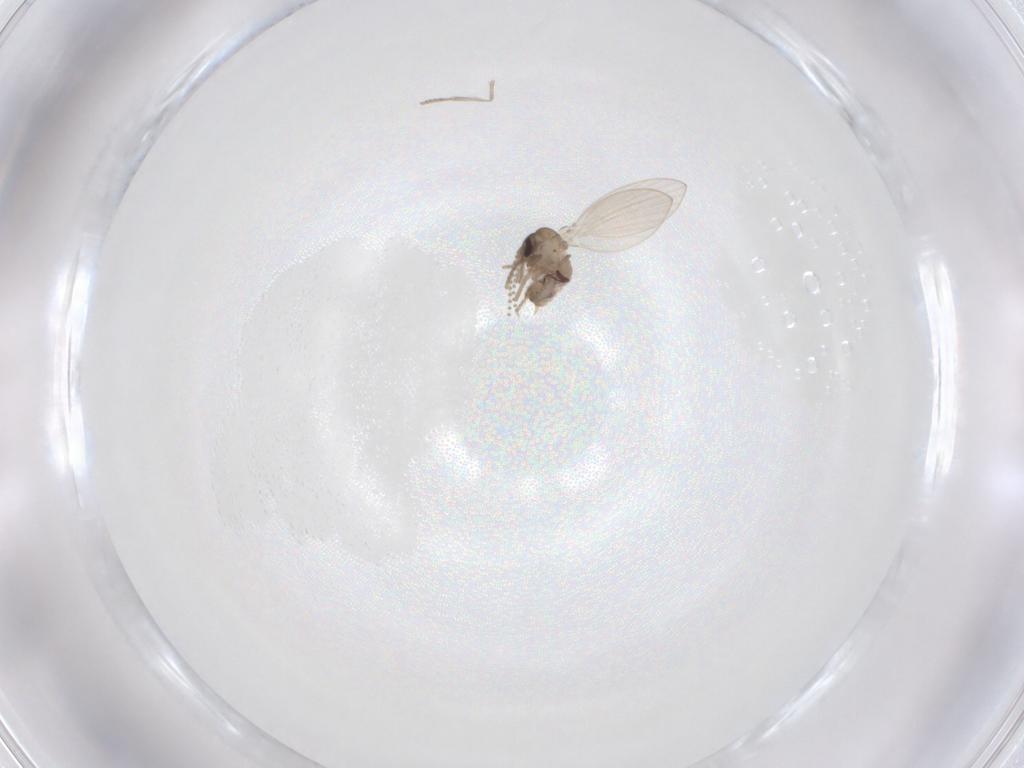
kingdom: Animalia
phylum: Arthropoda
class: Insecta
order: Diptera
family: Psychodidae
